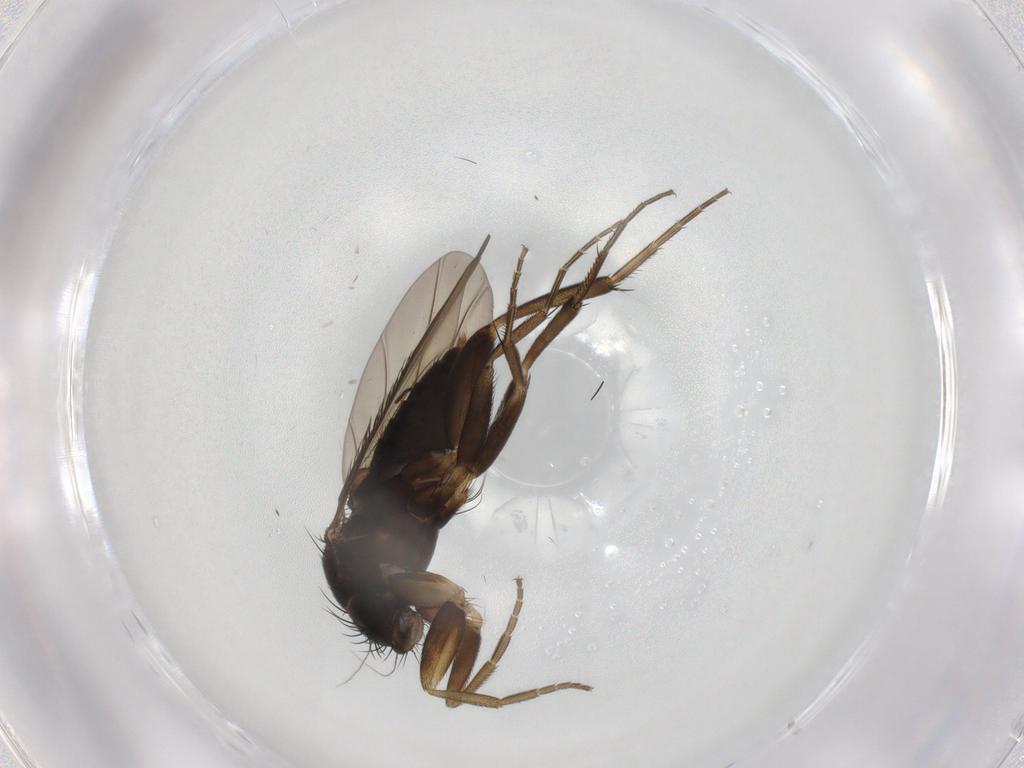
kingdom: Animalia
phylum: Arthropoda
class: Insecta
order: Diptera
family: Phoridae
